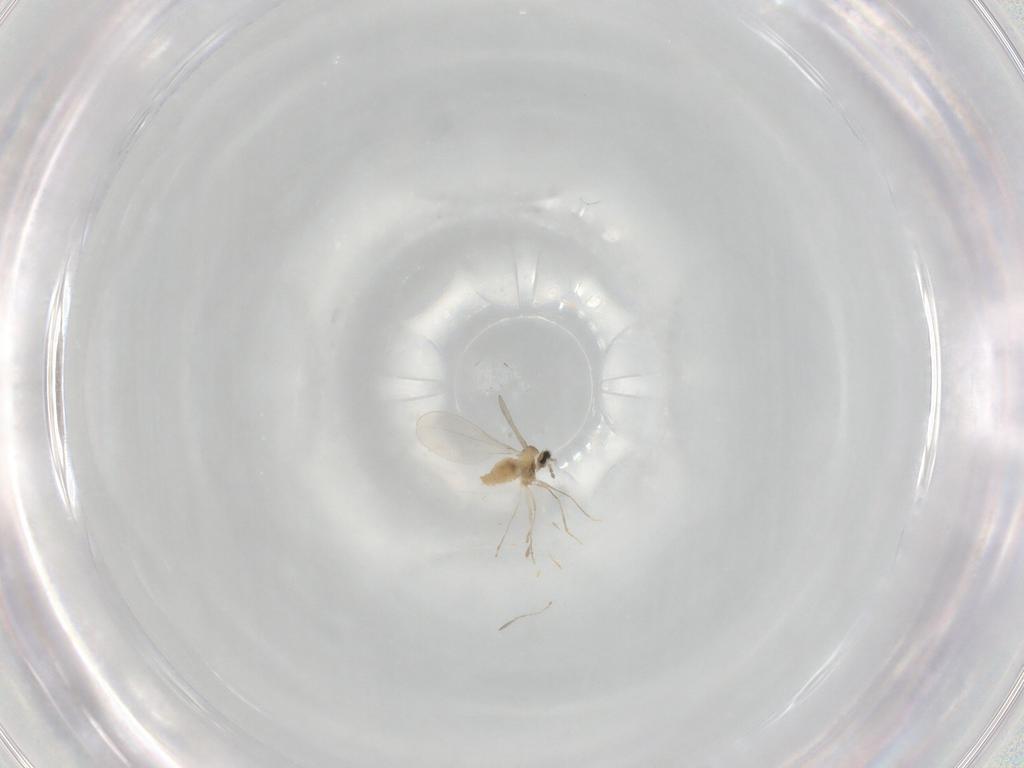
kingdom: Animalia
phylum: Arthropoda
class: Insecta
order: Diptera
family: Cecidomyiidae
